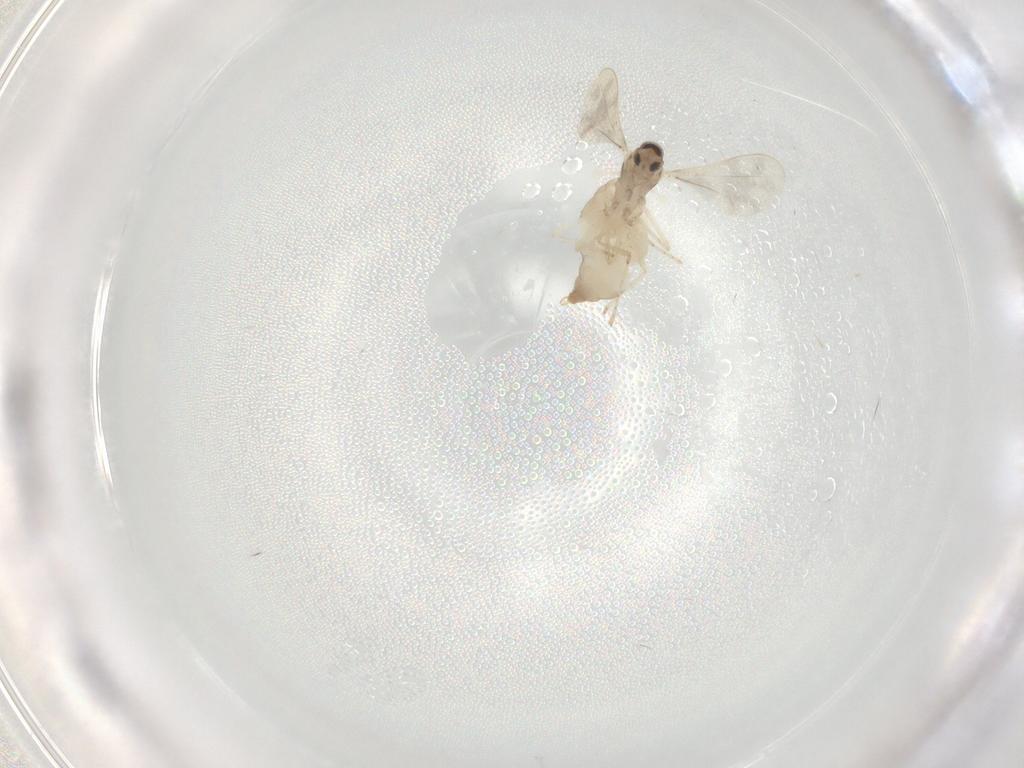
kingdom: Animalia
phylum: Arthropoda
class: Insecta
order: Diptera
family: Cecidomyiidae
